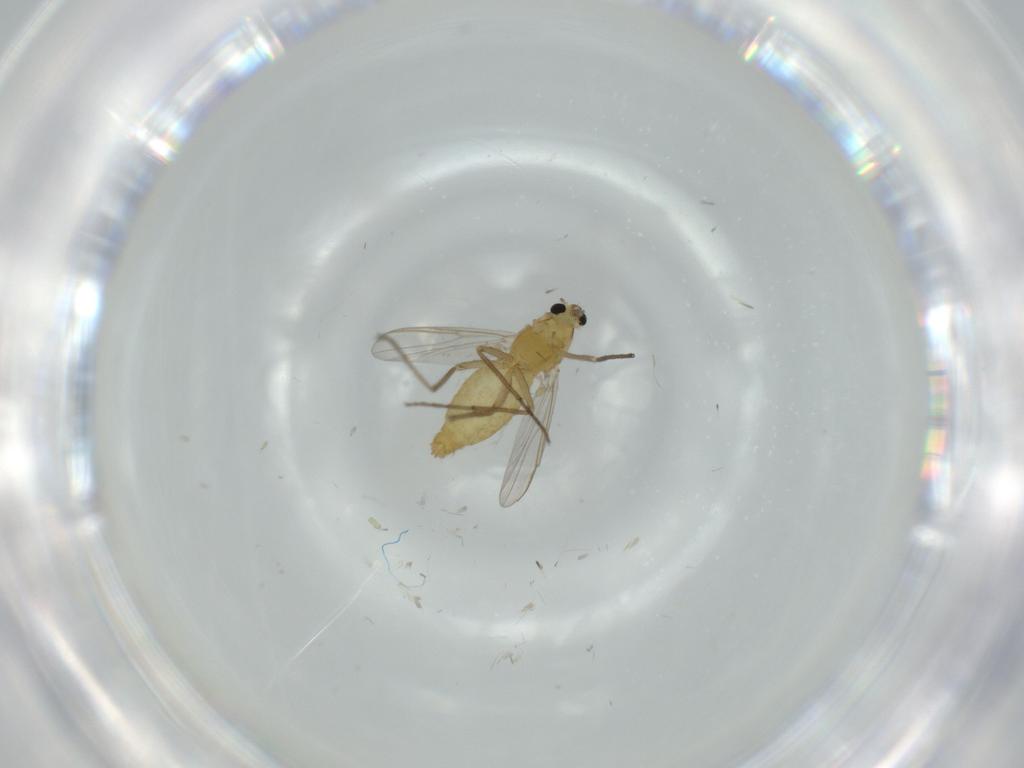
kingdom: Animalia
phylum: Arthropoda
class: Insecta
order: Diptera
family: Chironomidae
